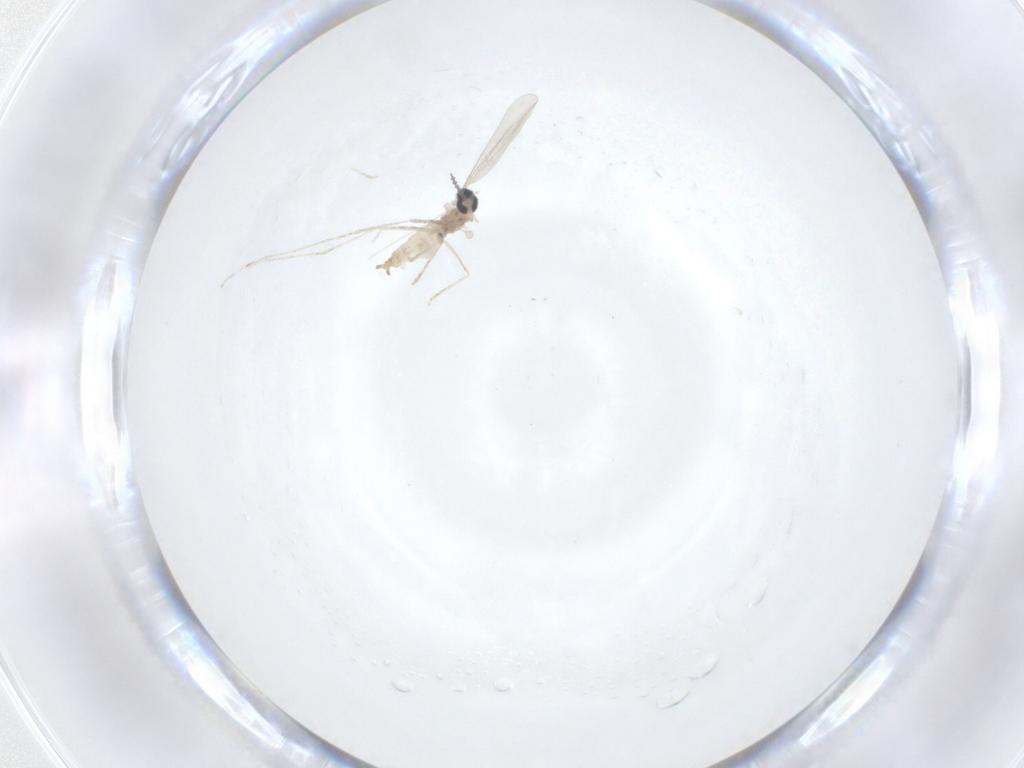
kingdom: Animalia
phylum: Arthropoda
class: Insecta
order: Diptera
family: Cecidomyiidae
